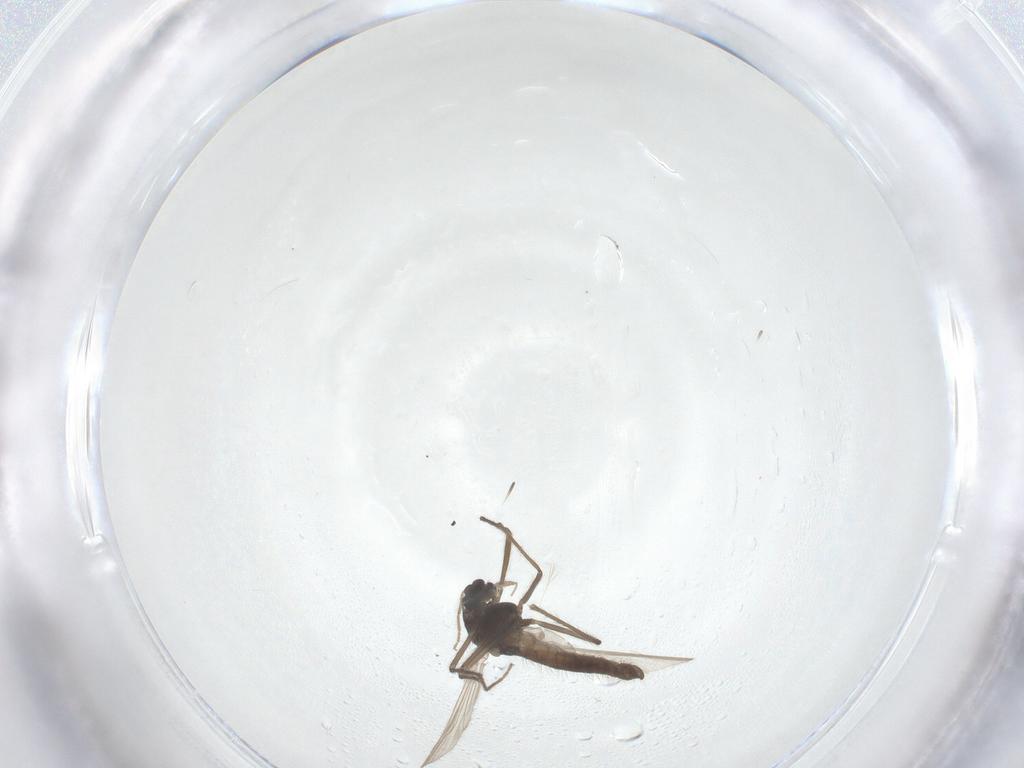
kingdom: Animalia
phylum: Arthropoda
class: Insecta
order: Diptera
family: Chironomidae
